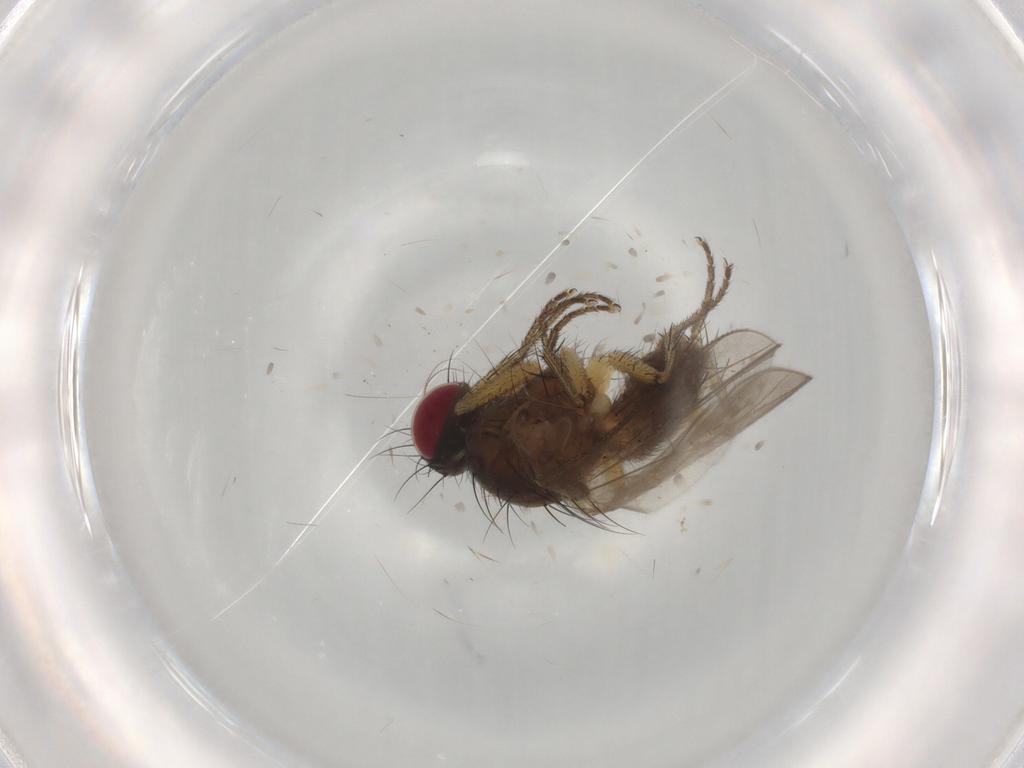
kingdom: Animalia
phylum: Arthropoda
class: Insecta
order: Diptera
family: Muscidae
